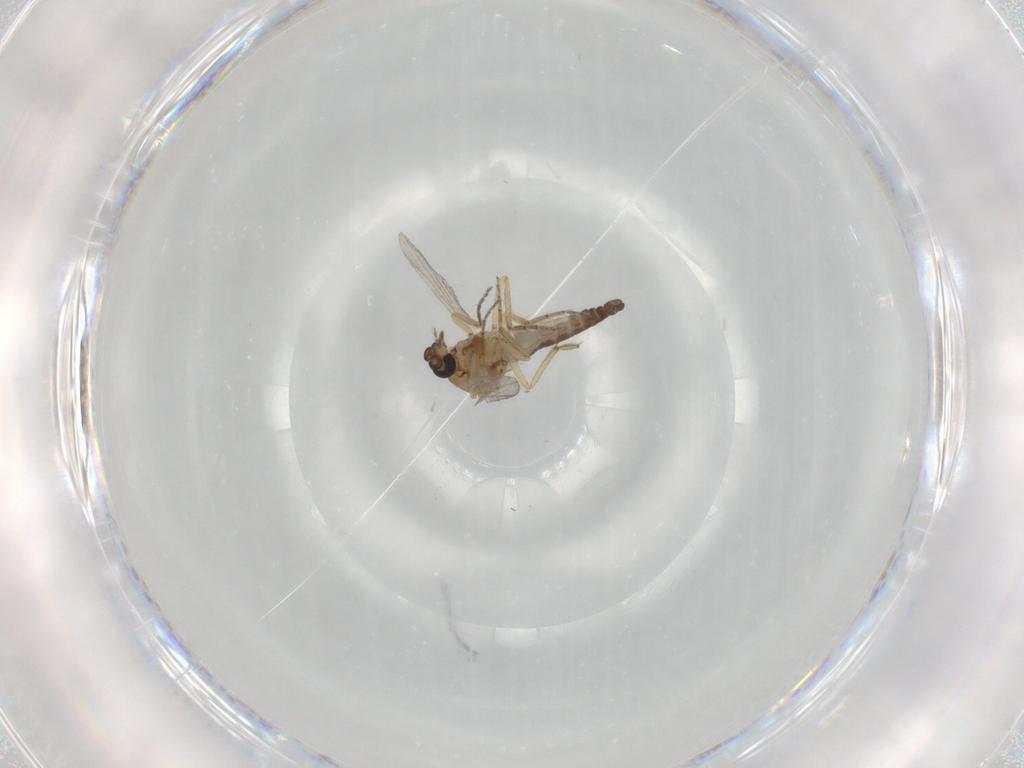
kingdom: Animalia
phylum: Arthropoda
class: Insecta
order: Diptera
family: Ceratopogonidae
